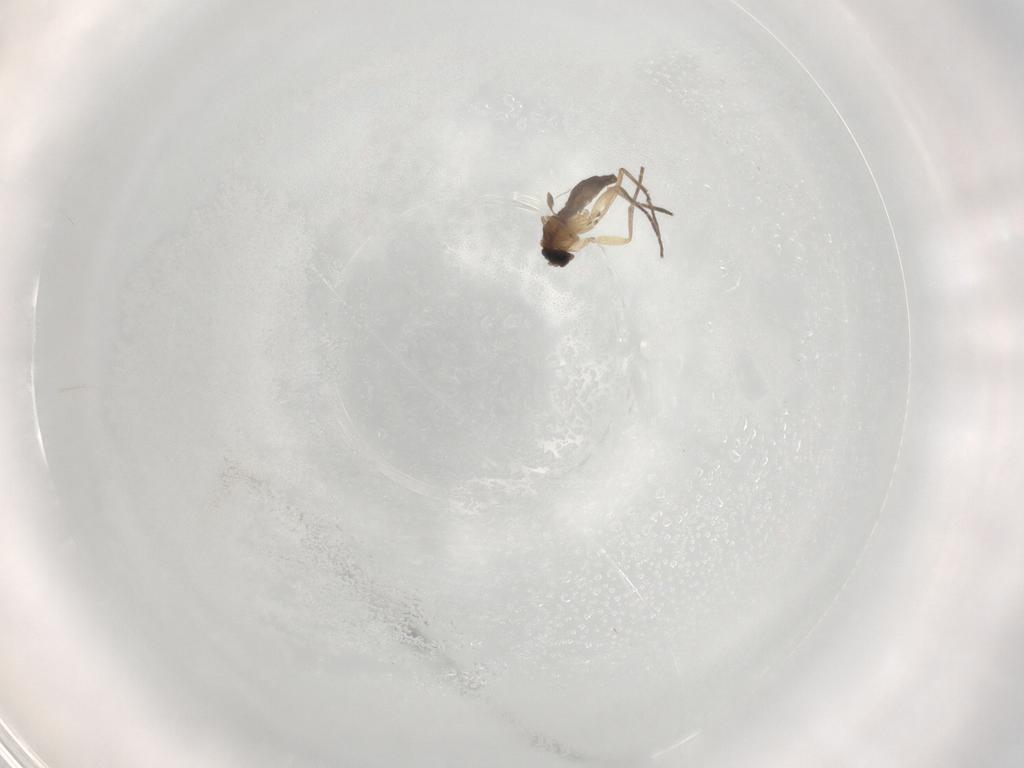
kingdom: Animalia
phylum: Arthropoda
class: Insecta
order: Diptera
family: Sciaridae
